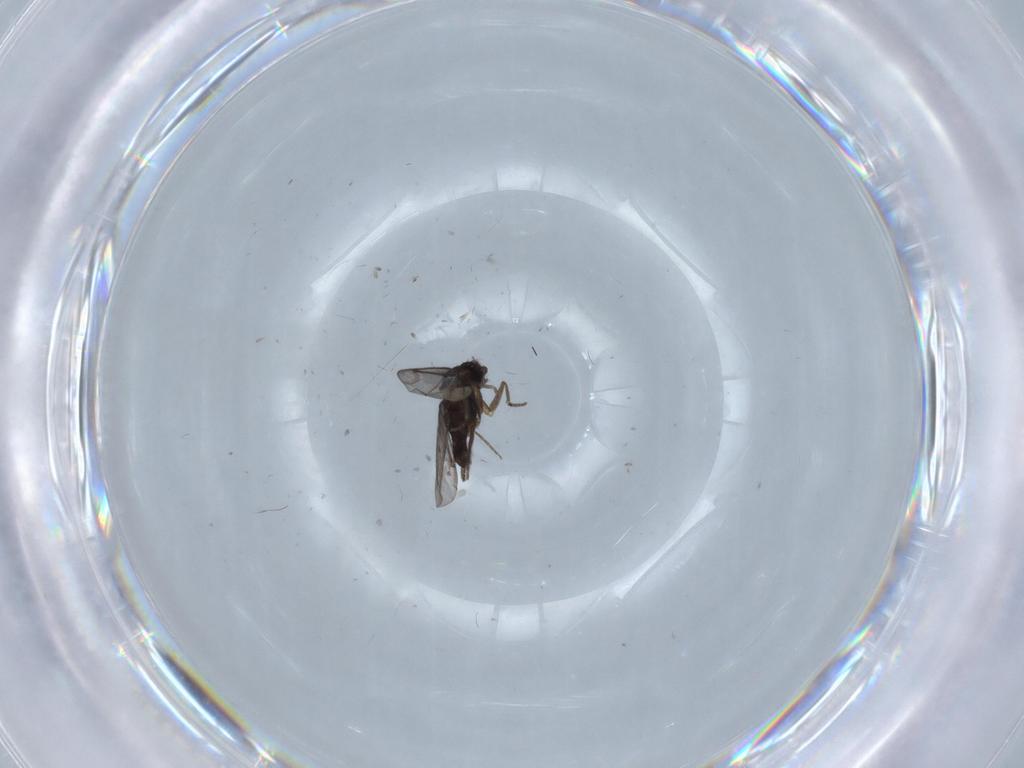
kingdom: Animalia
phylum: Arthropoda
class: Insecta
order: Diptera
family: Ceratopogonidae
